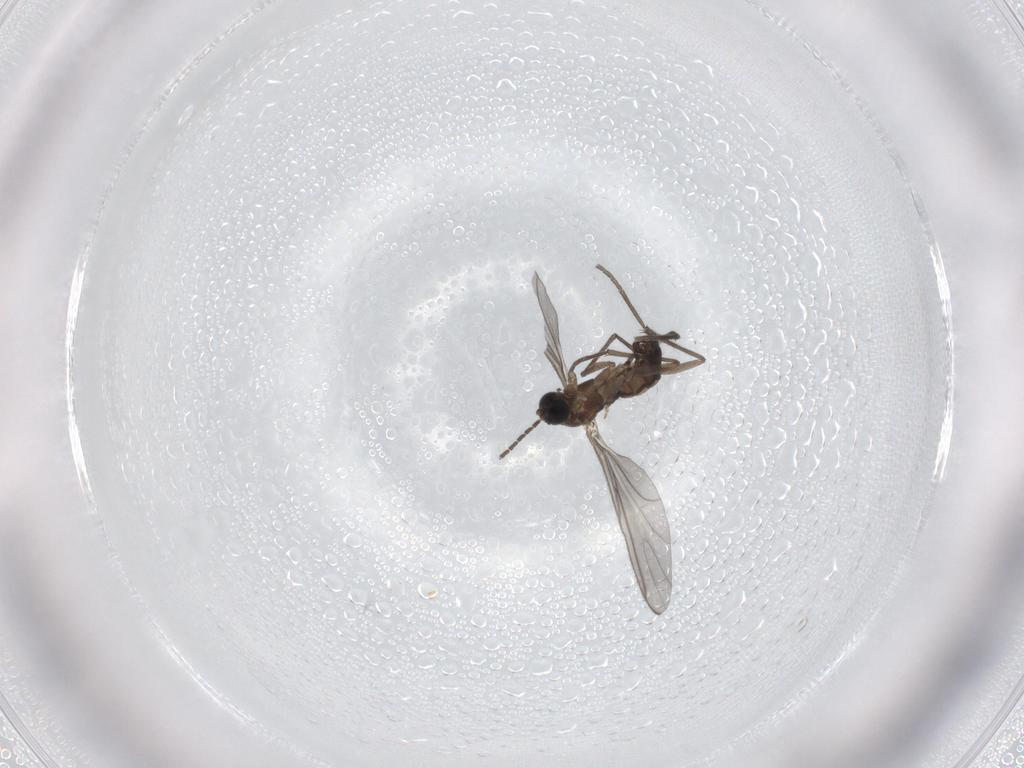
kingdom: Animalia
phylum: Arthropoda
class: Insecta
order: Diptera
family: Sciaridae
